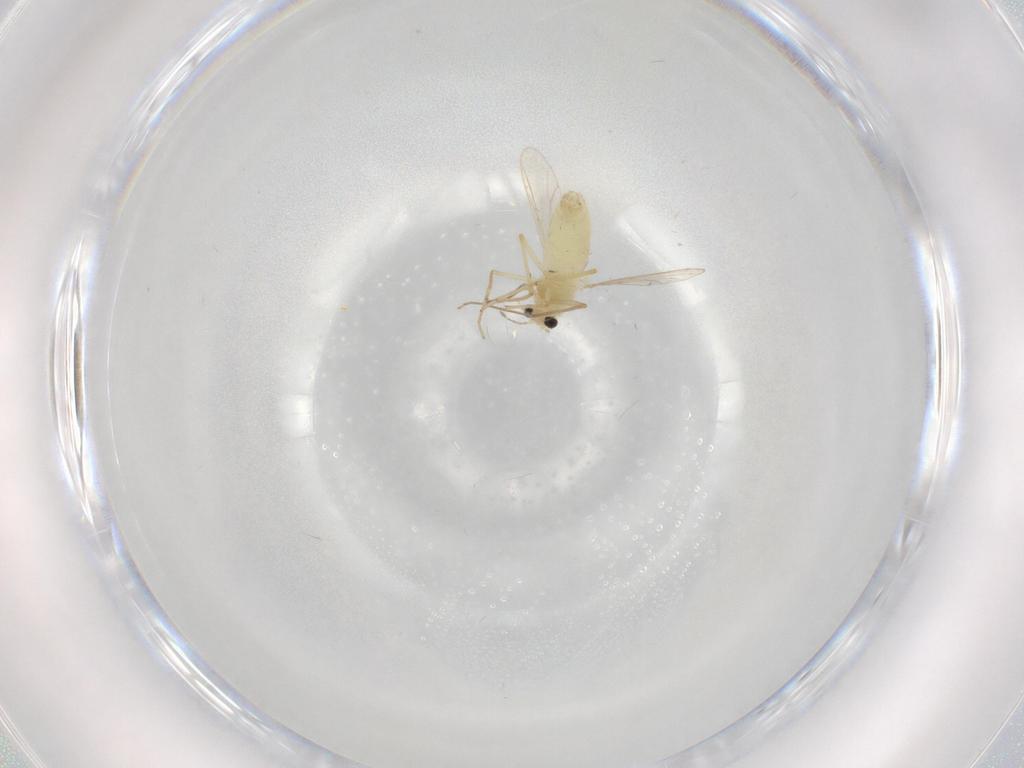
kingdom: Animalia
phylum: Arthropoda
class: Insecta
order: Diptera
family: Chironomidae
